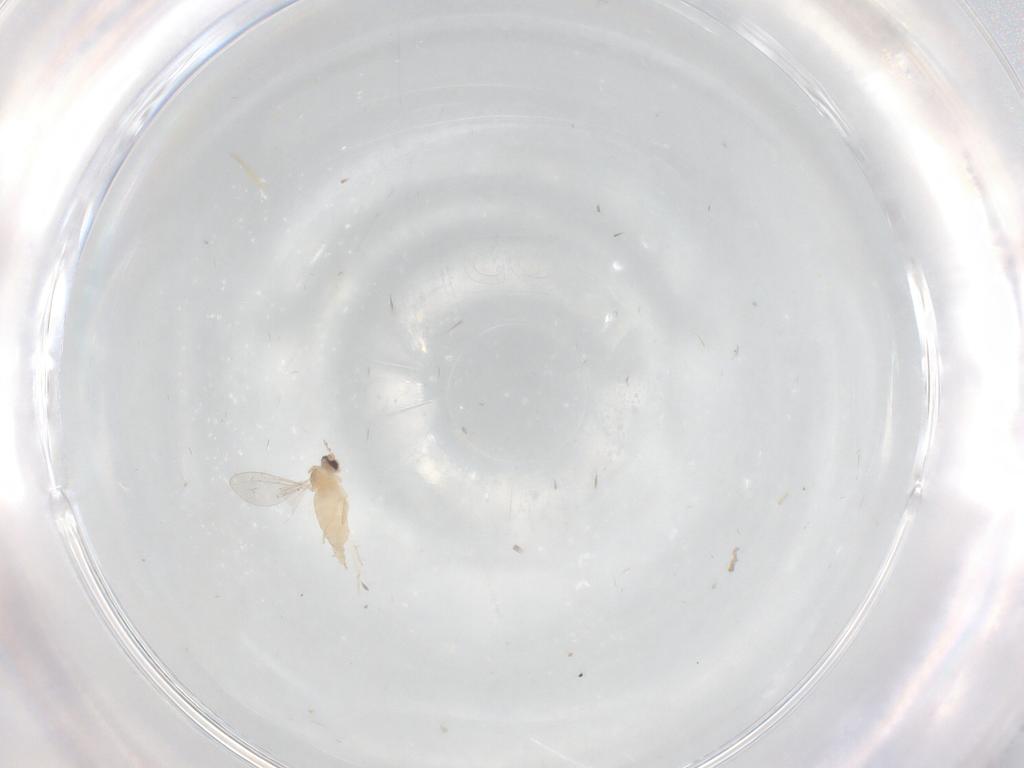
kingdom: Animalia
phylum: Arthropoda
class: Insecta
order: Diptera
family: Cecidomyiidae
